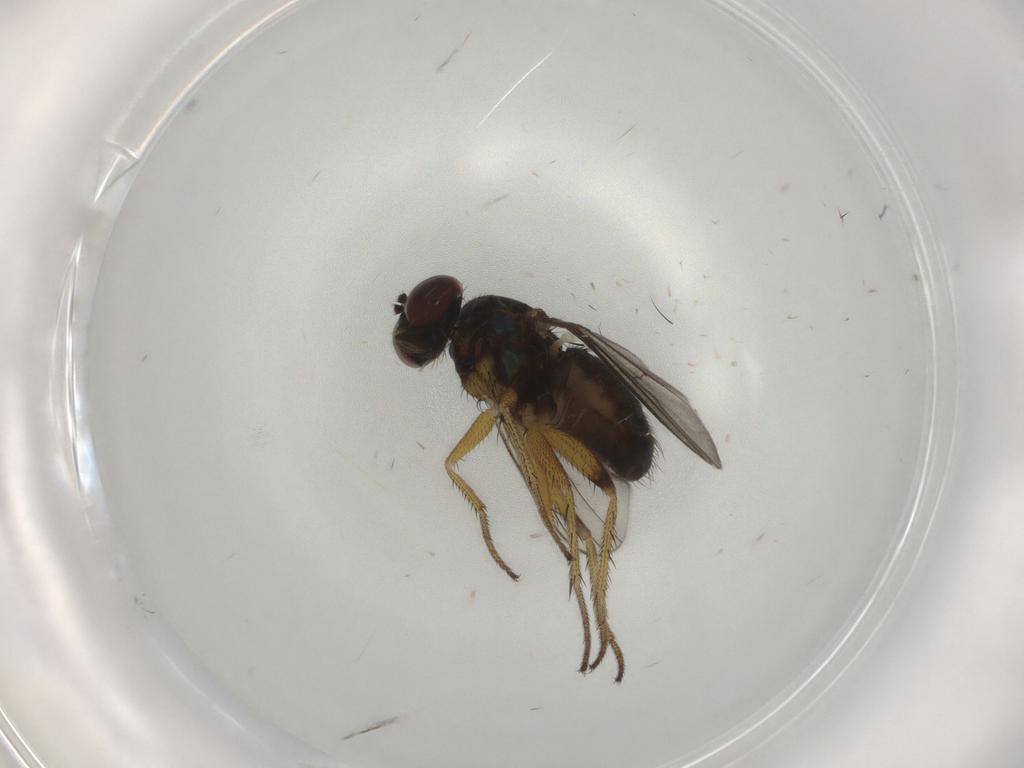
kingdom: Animalia
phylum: Arthropoda
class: Insecta
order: Diptera
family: Dolichopodidae
